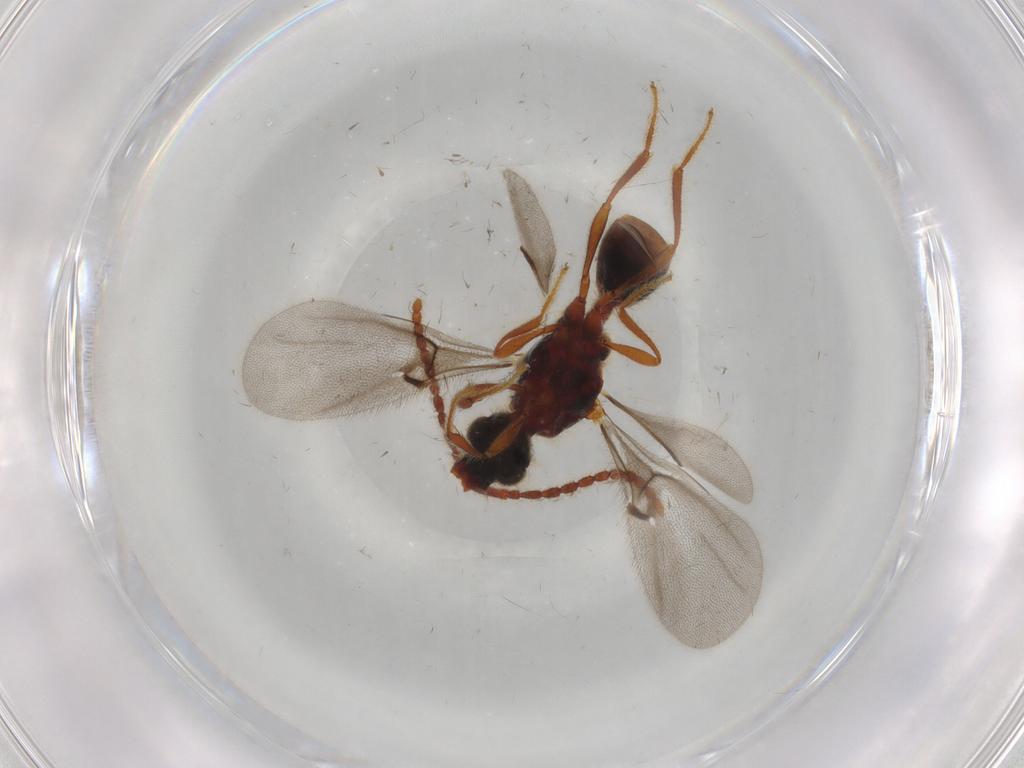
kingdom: Animalia
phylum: Arthropoda
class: Insecta
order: Hymenoptera
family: Diapriidae
